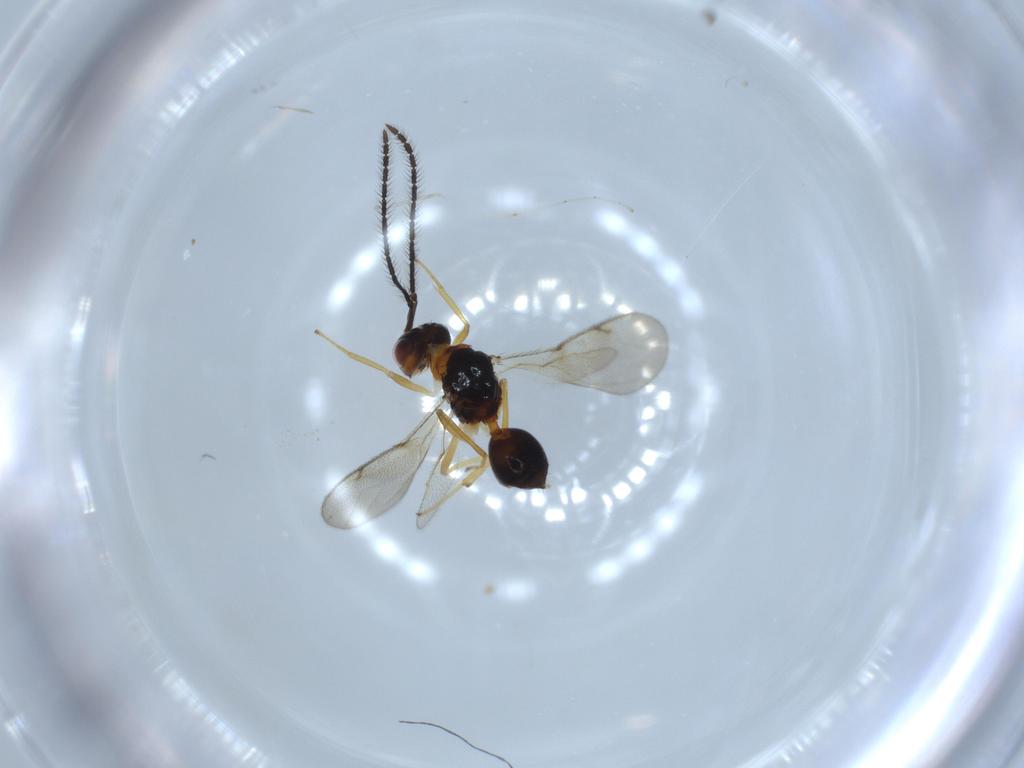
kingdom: Animalia
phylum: Arthropoda
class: Insecta
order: Hymenoptera
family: Diparidae
